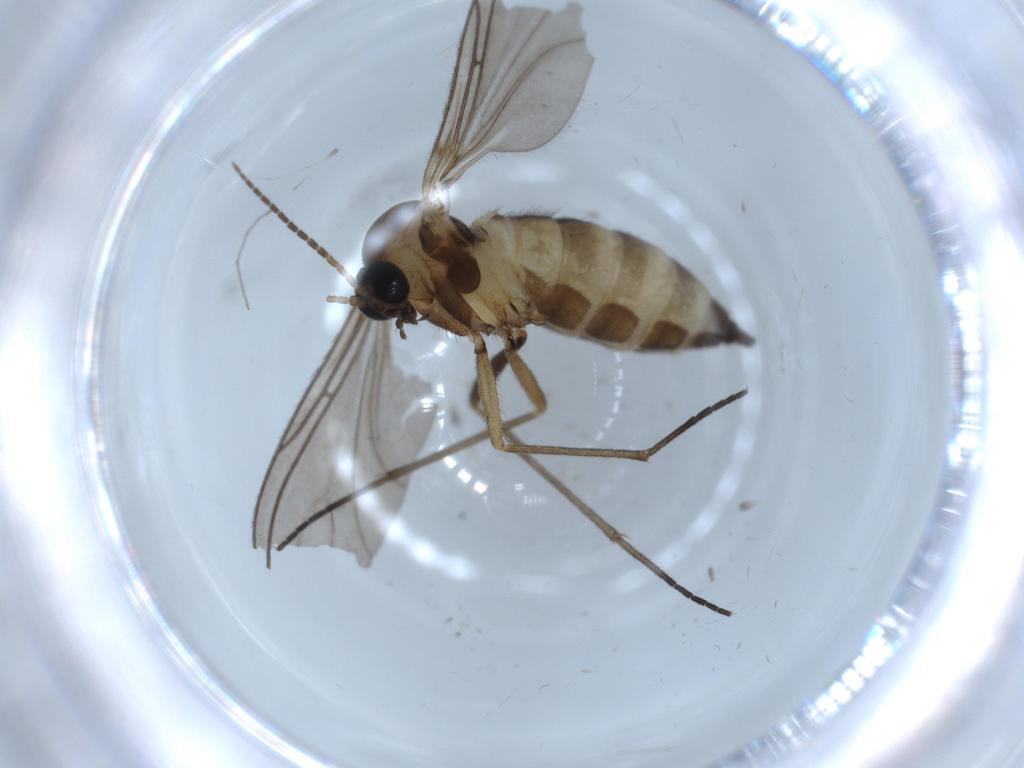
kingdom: Animalia
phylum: Arthropoda
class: Insecta
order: Diptera
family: Sciaridae
